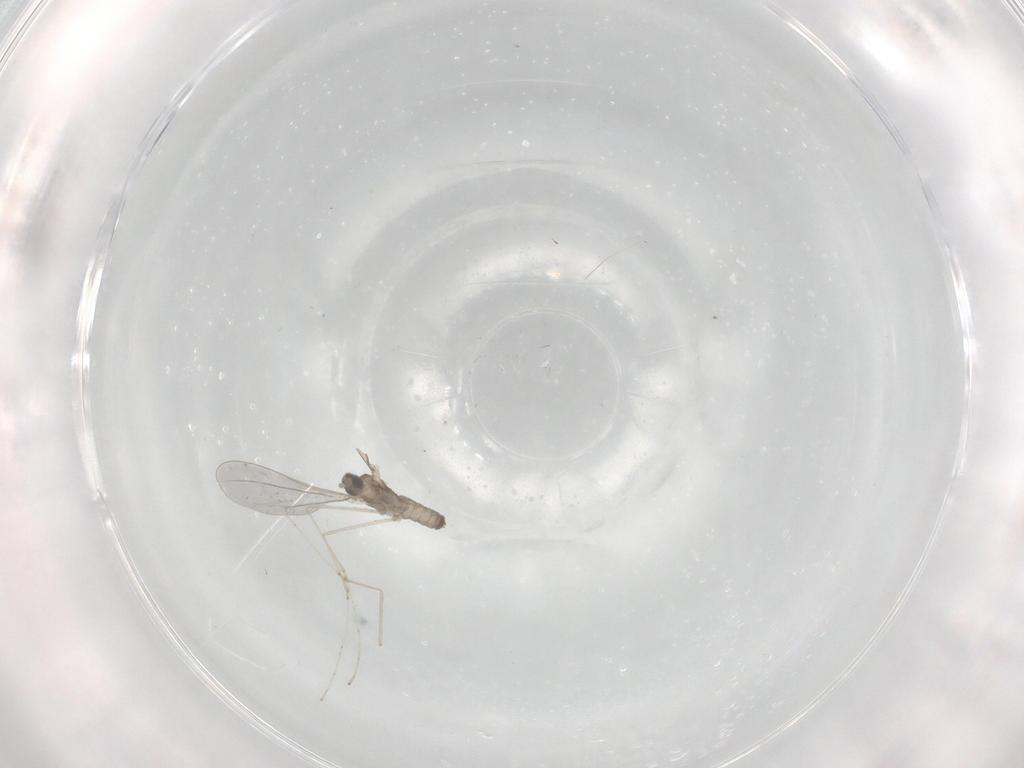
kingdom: Animalia
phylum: Arthropoda
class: Insecta
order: Diptera
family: Cecidomyiidae
